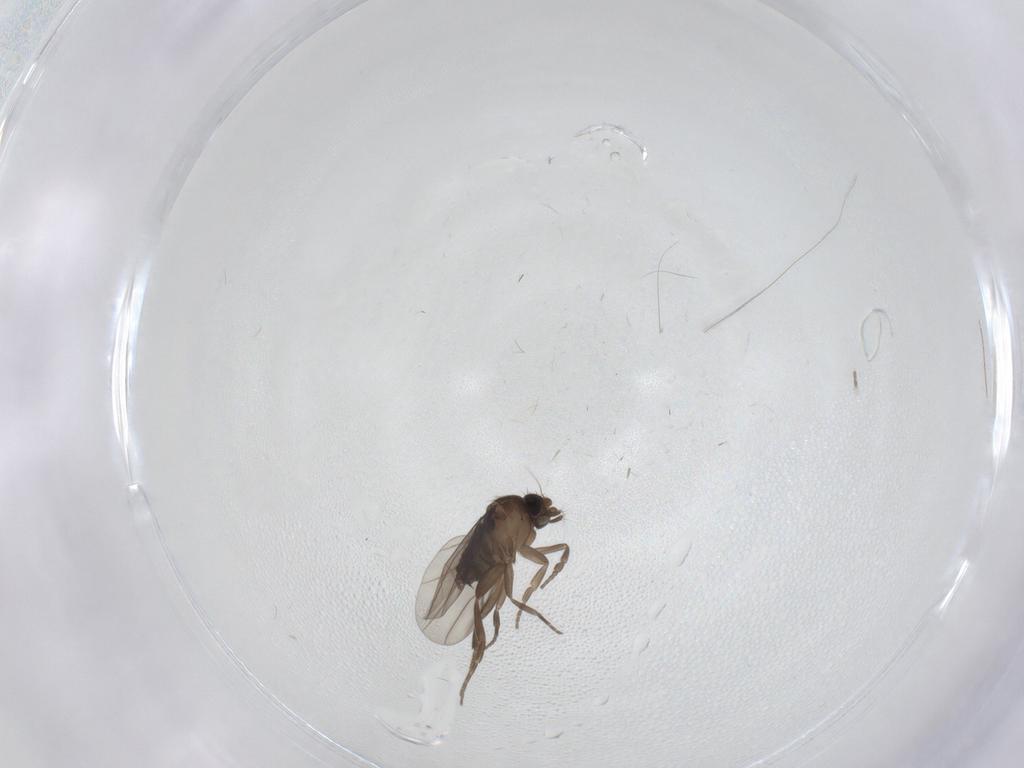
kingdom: Animalia
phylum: Arthropoda
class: Insecta
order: Diptera
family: Chironomidae
